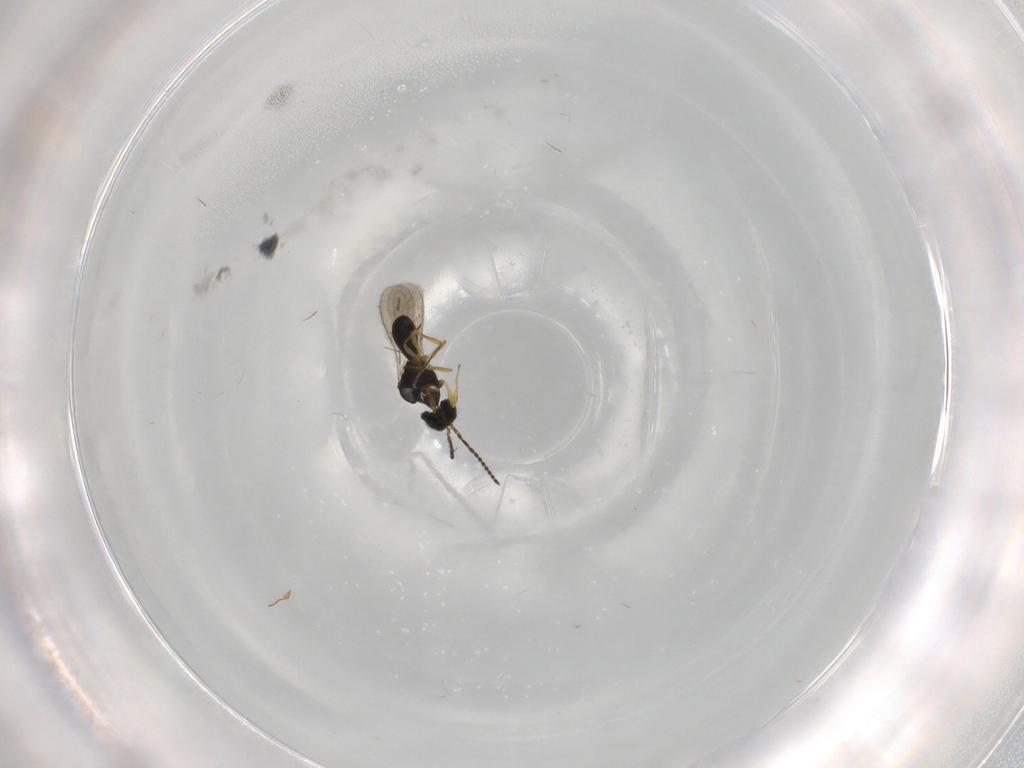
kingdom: Animalia
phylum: Arthropoda
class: Insecta
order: Hymenoptera
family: Scelionidae
